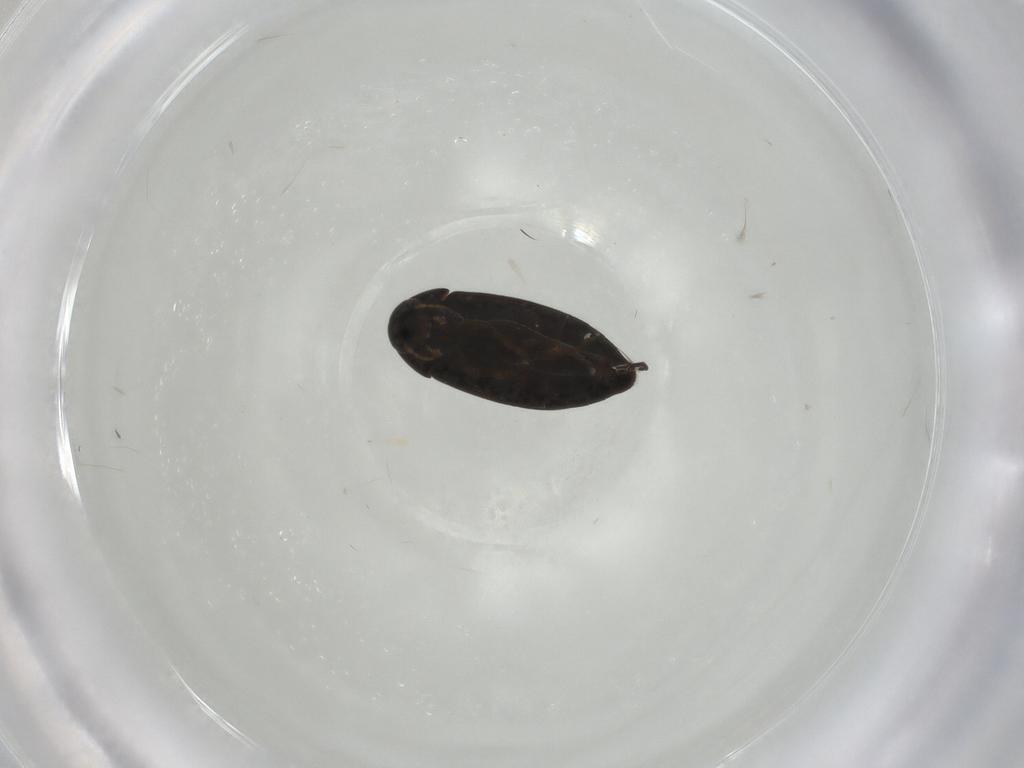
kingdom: Animalia
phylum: Arthropoda
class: Insecta
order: Coleoptera
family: Scraptiidae
